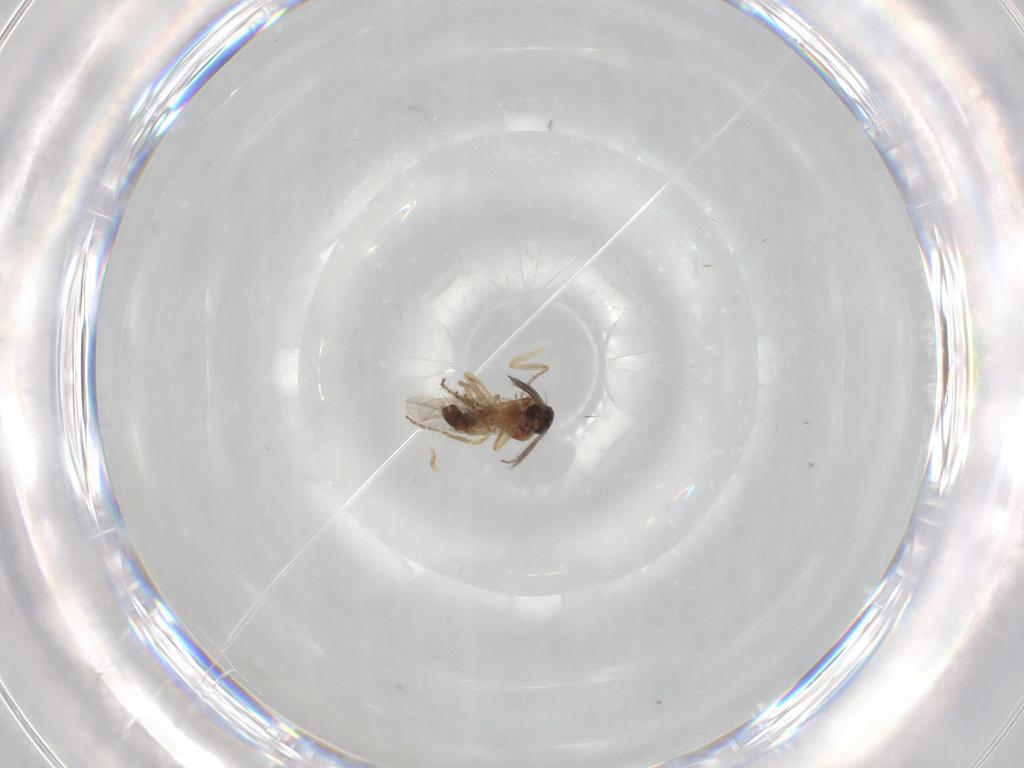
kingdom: Animalia
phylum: Arthropoda
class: Insecta
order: Diptera
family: Ceratopogonidae
